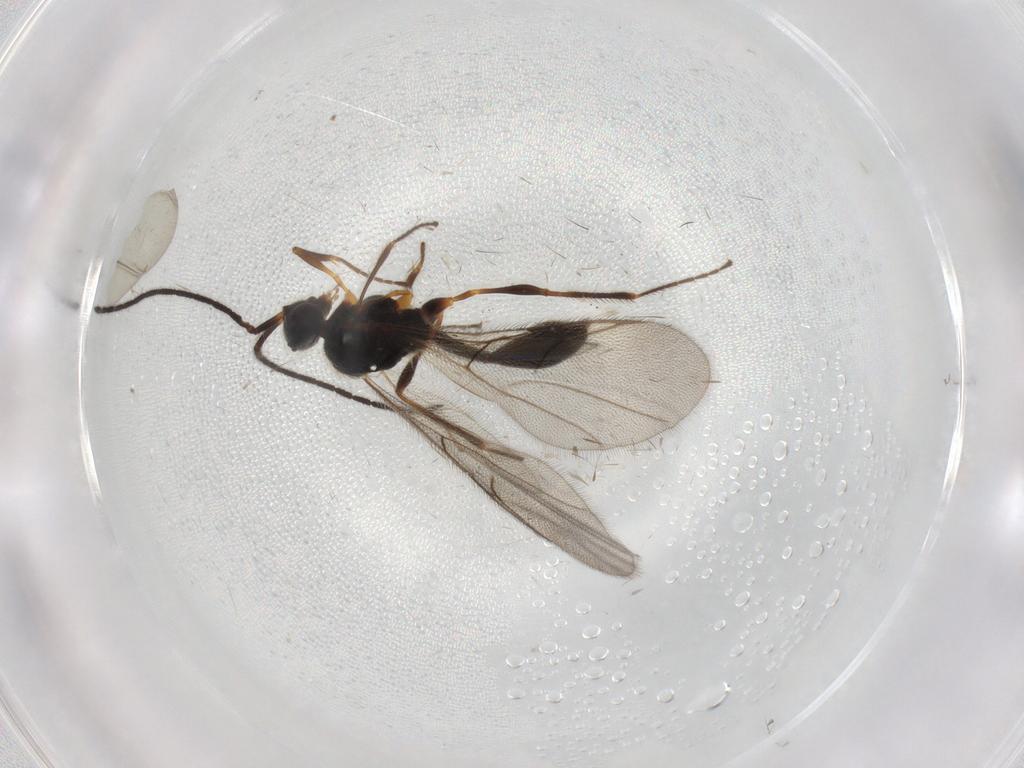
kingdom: Animalia
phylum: Arthropoda
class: Insecta
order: Hymenoptera
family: Diapriidae
